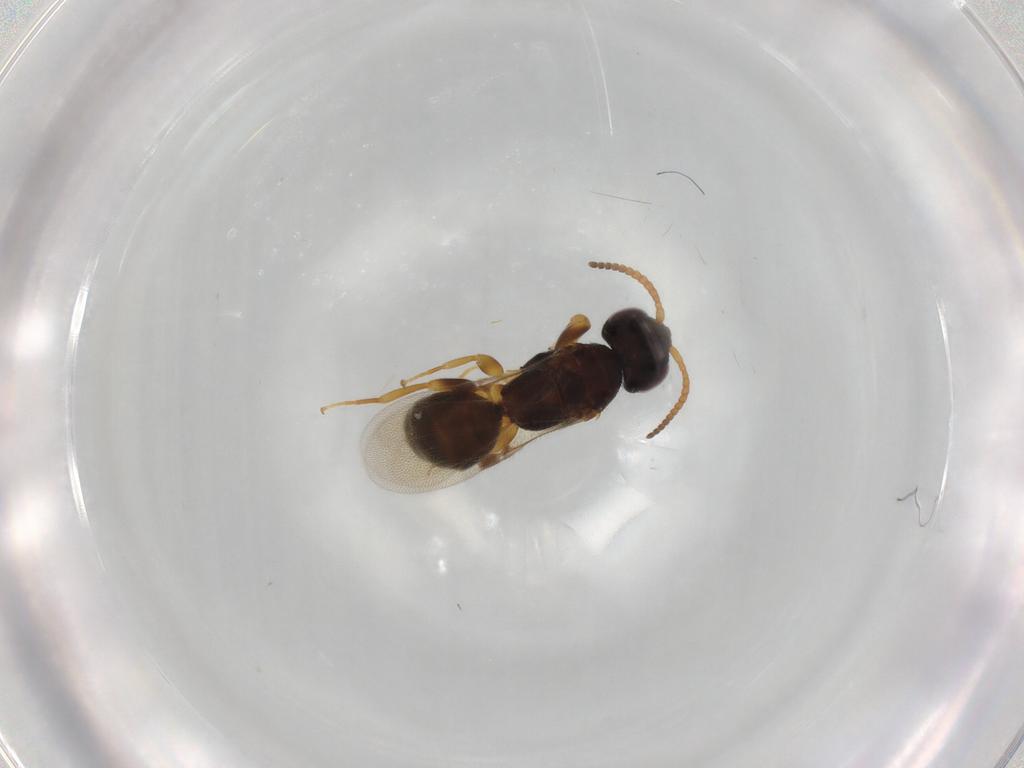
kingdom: Animalia
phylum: Arthropoda
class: Insecta
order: Hymenoptera
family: Bethylidae
